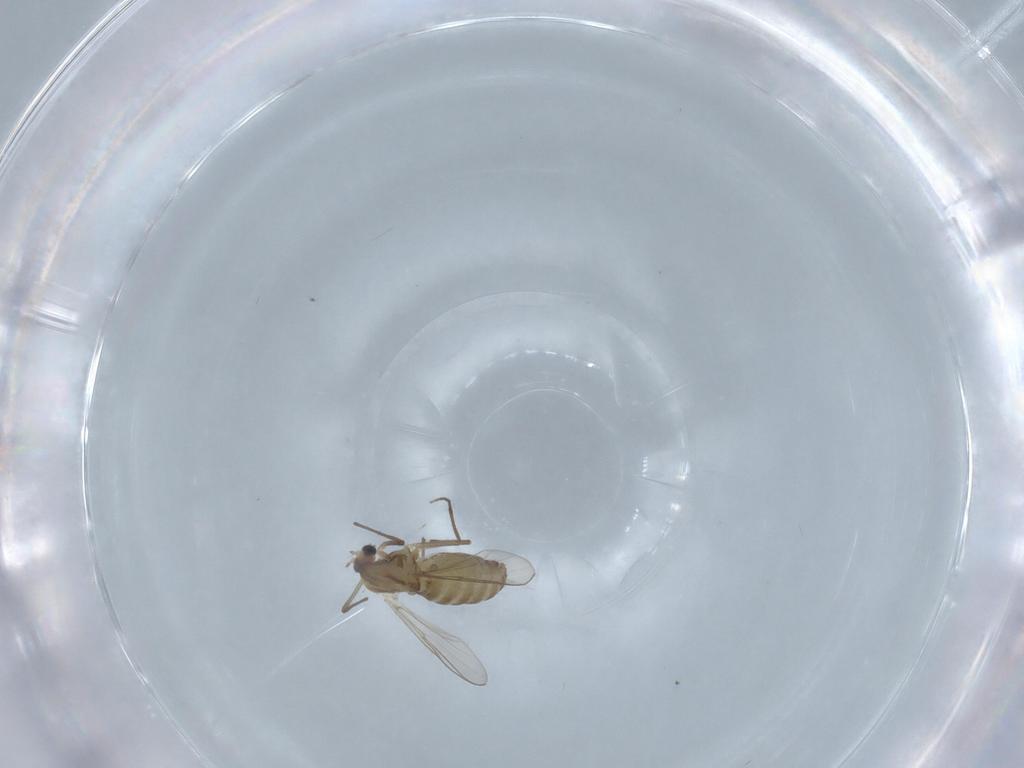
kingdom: Animalia
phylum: Arthropoda
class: Insecta
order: Diptera
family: Chironomidae
